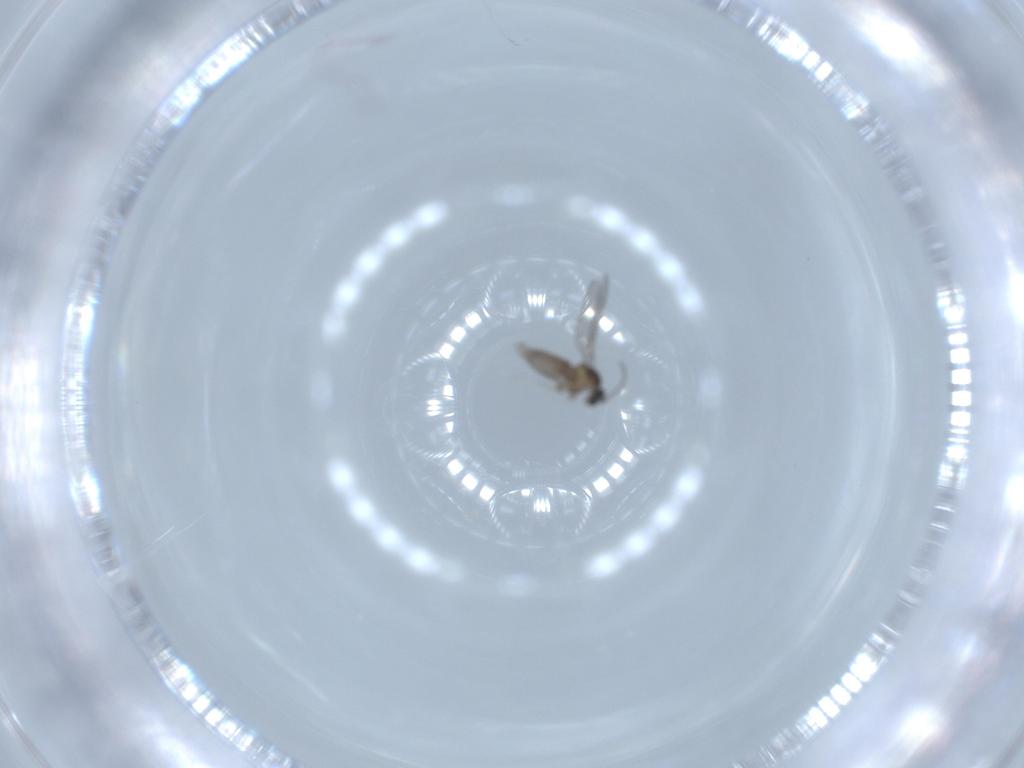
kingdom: Animalia
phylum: Arthropoda
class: Insecta
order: Diptera
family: Cecidomyiidae
